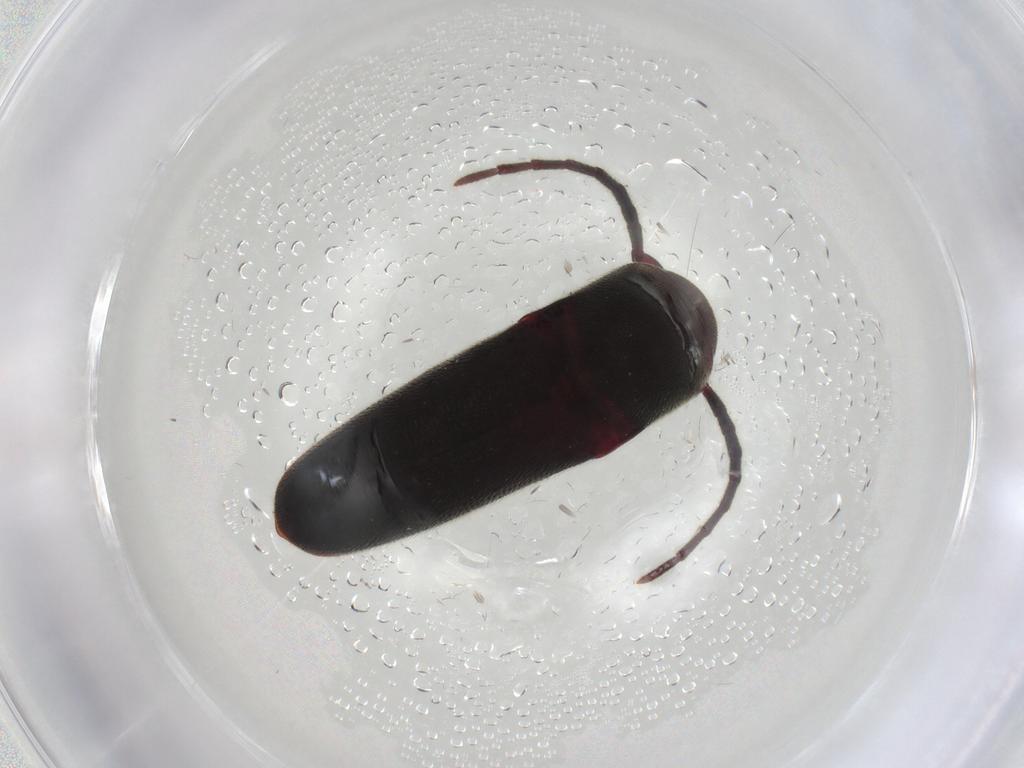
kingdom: Animalia
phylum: Arthropoda
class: Insecta
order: Coleoptera
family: Eucnemidae
